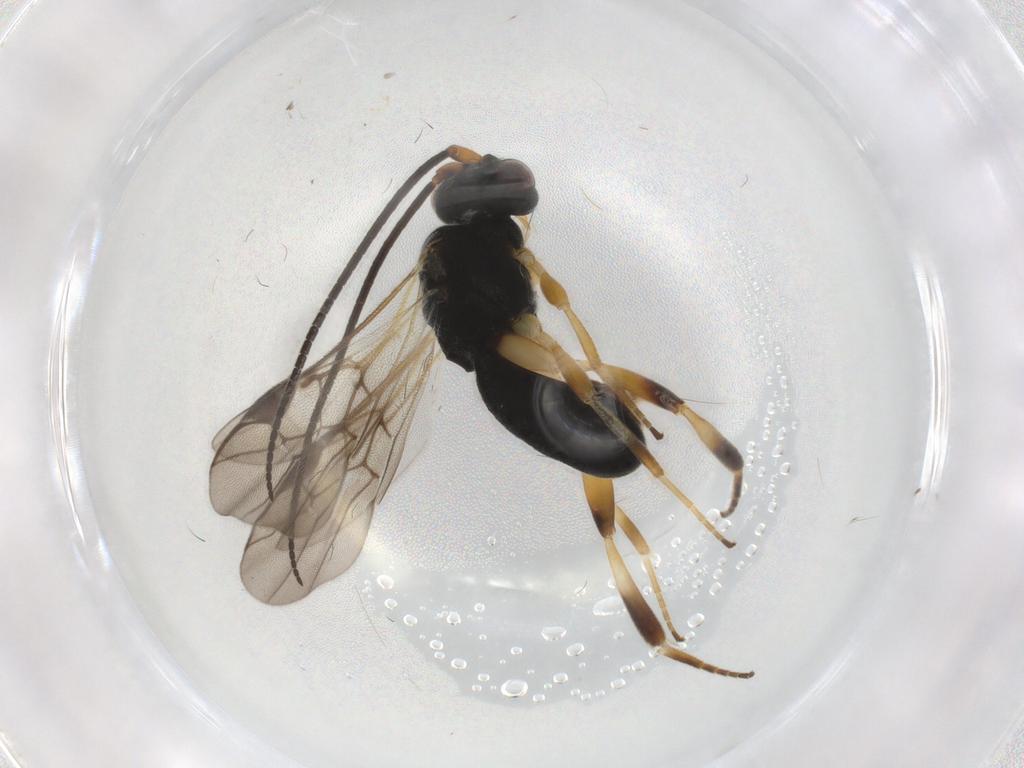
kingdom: Animalia
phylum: Arthropoda
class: Insecta
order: Hymenoptera
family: Braconidae
